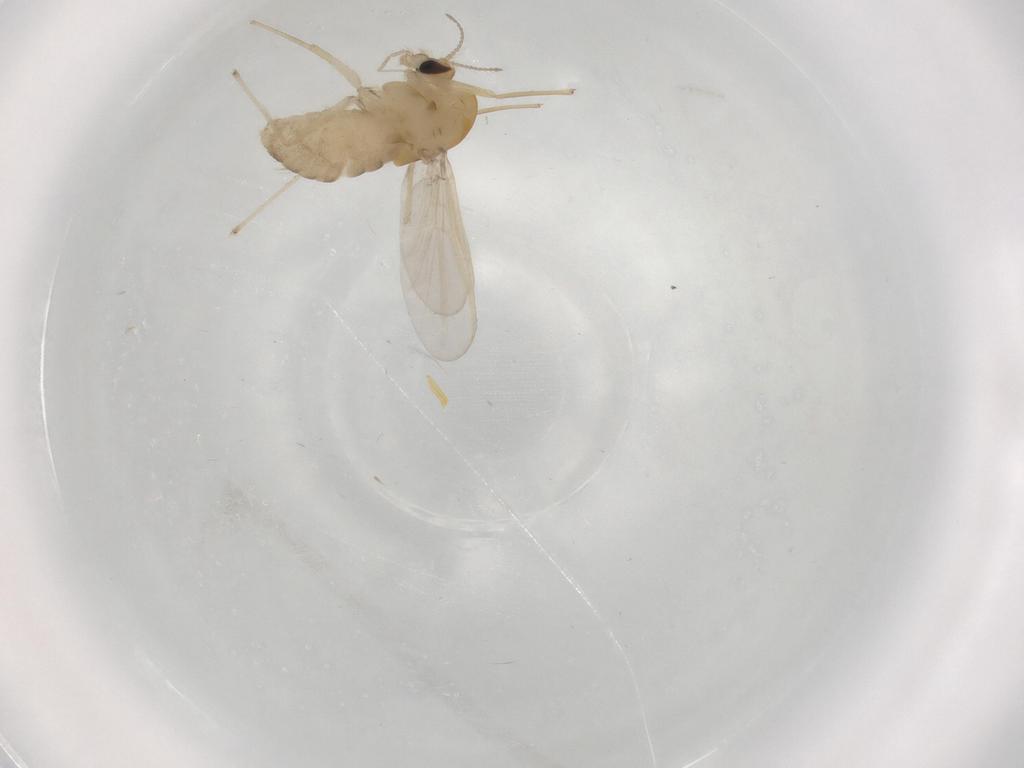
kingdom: Animalia
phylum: Arthropoda
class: Insecta
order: Diptera
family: Chironomidae
